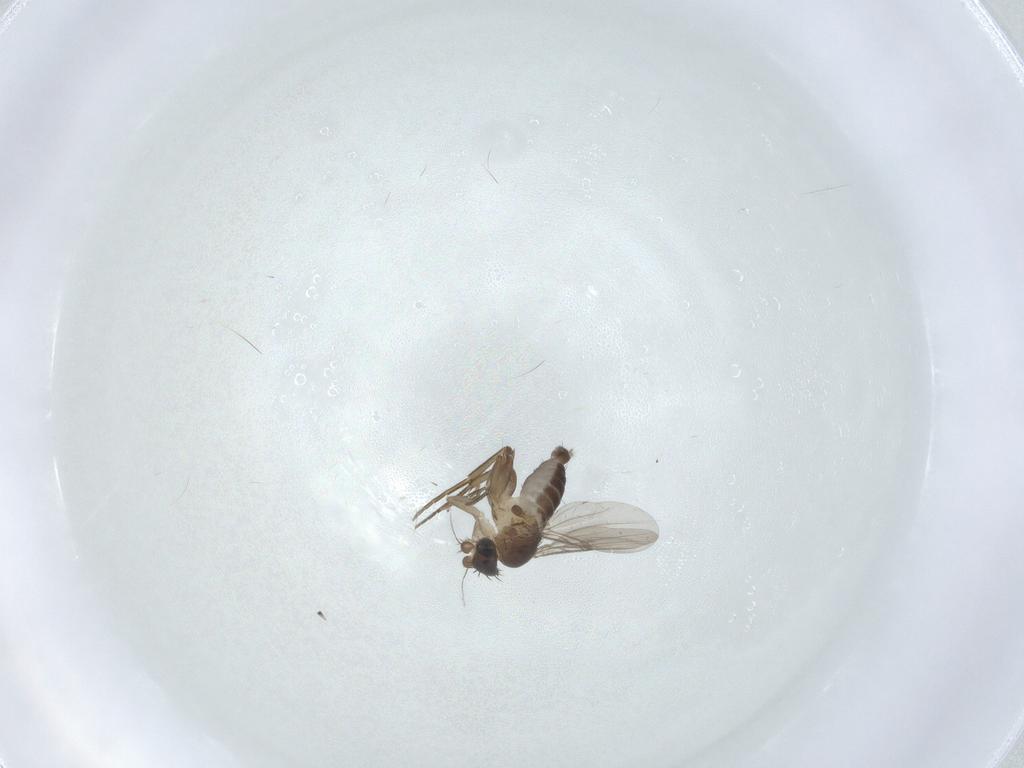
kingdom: Animalia
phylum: Arthropoda
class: Insecta
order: Diptera
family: Phoridae
